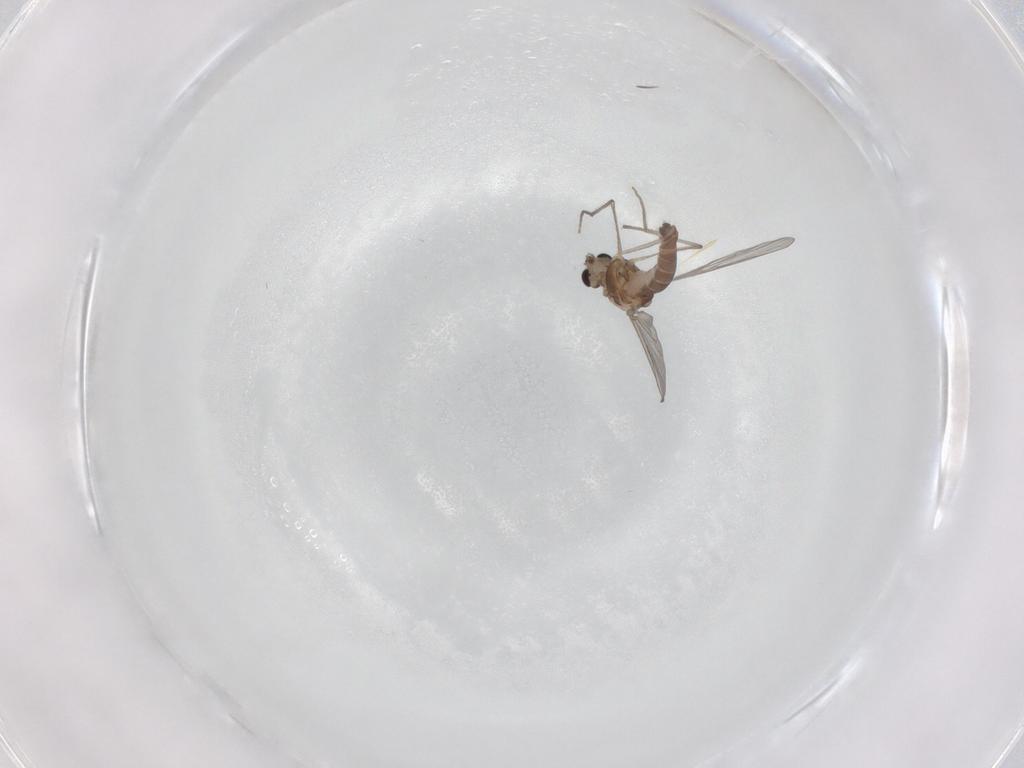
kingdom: Animalia
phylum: Arthropoda
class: Insecta
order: Diptera
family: Chironomidae
